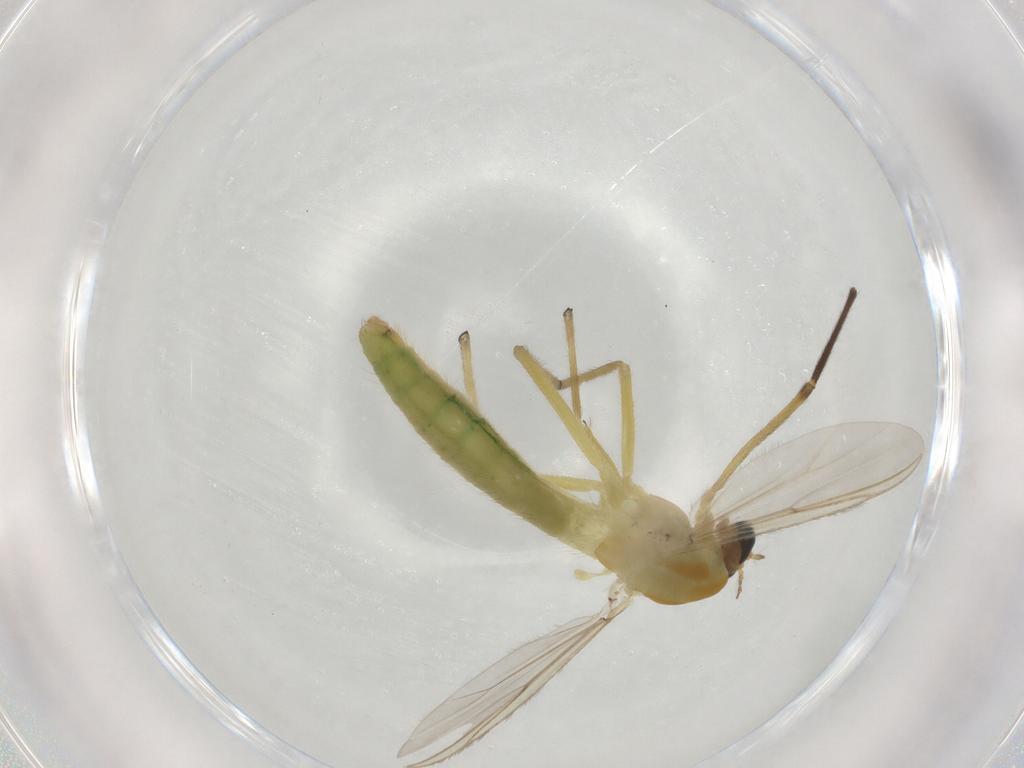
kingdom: Animalia
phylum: Arthropoda
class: Insecta
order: Diptera
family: Chironomidae
